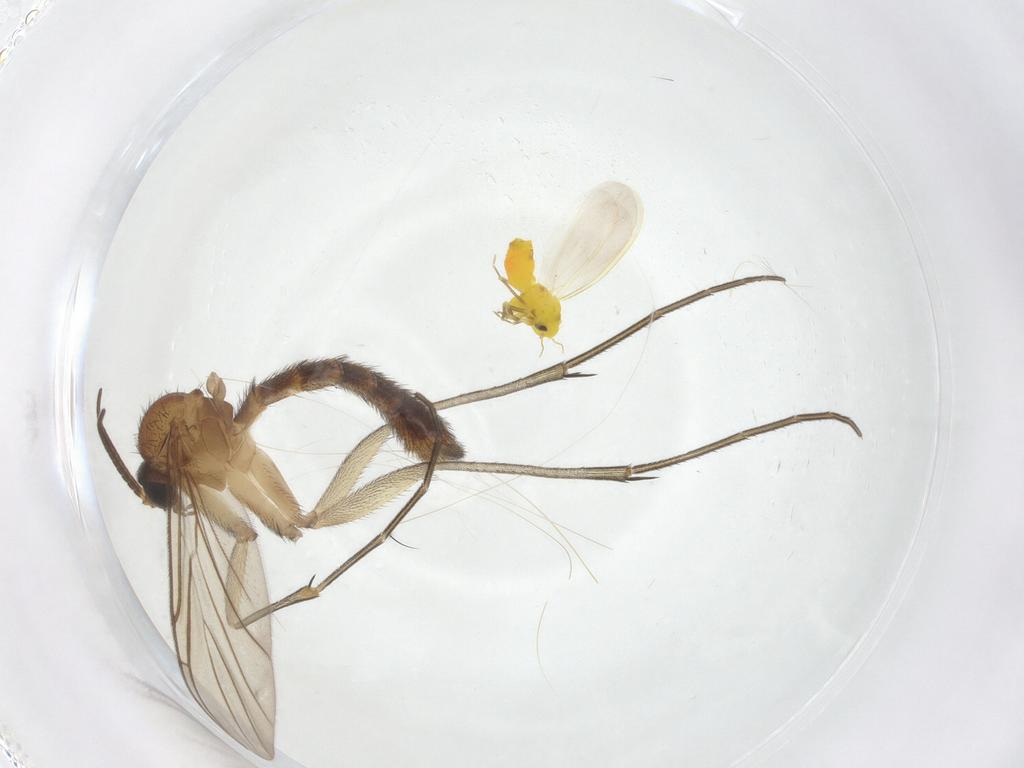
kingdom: Animalia
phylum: Arthropoda
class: Insecta
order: Diptera
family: Keroplatidae
